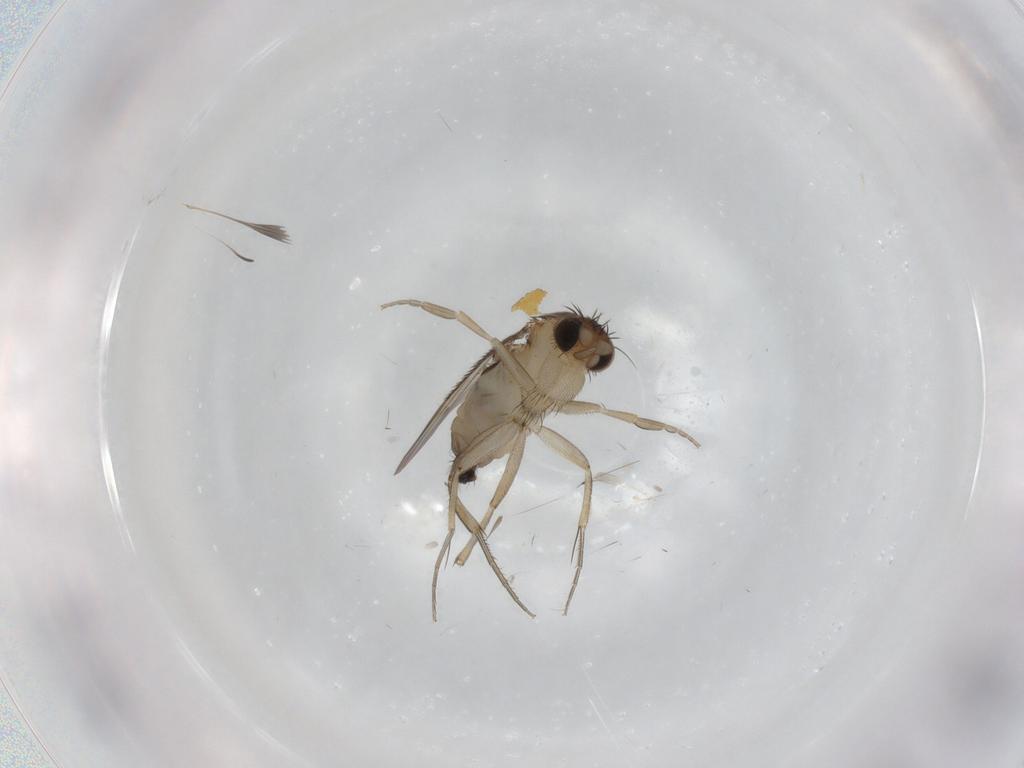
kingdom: Animalia
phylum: Arthropoda
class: Insecta
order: Diptera
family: Phoridae
